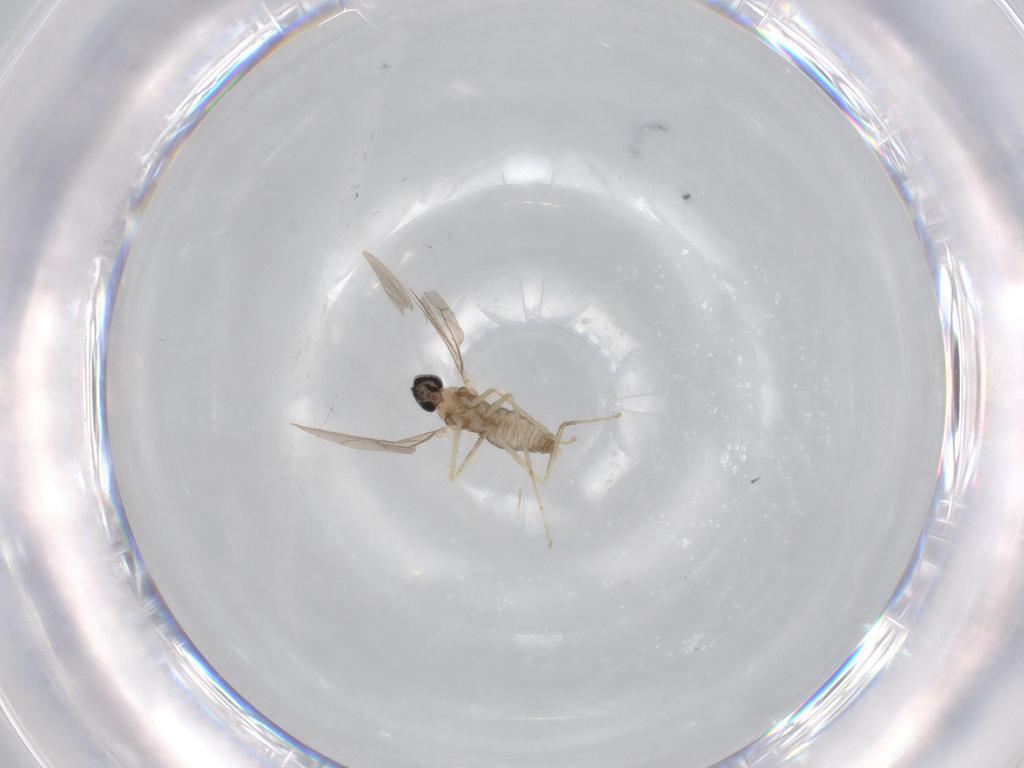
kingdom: Animalia
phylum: Arthropoda
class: Insecta
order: Diptera
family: Cecidomyiidae
